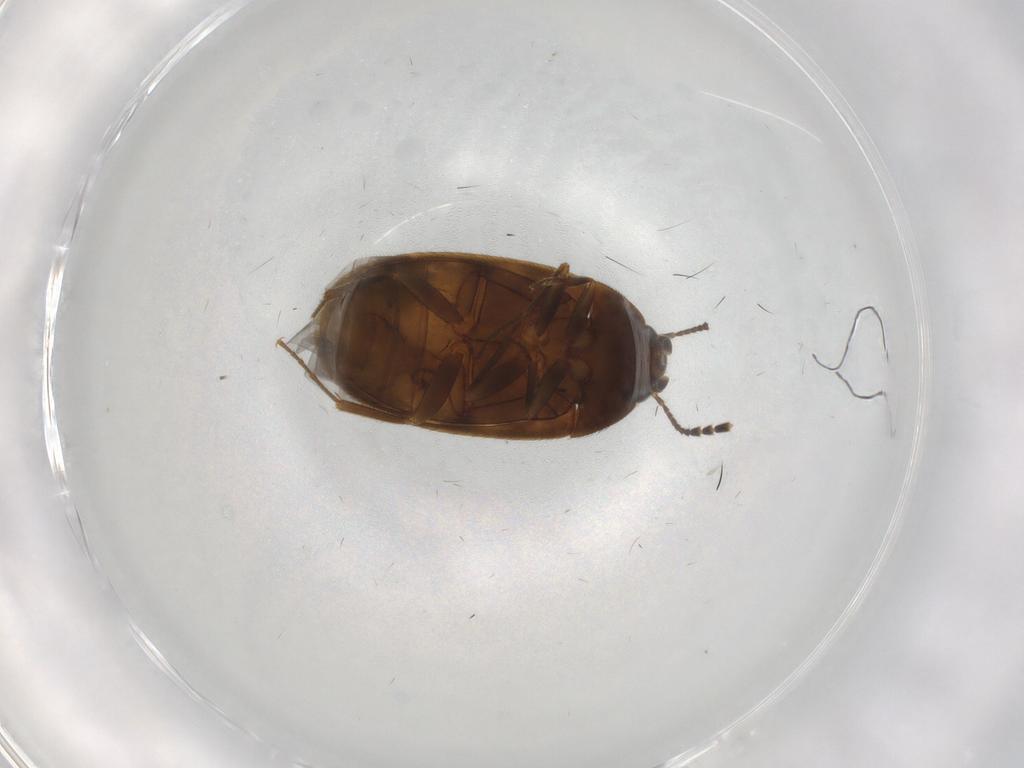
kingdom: Animalia
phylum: Arthropoda
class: Insecta
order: Coleoptera
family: Mycetophagidae
